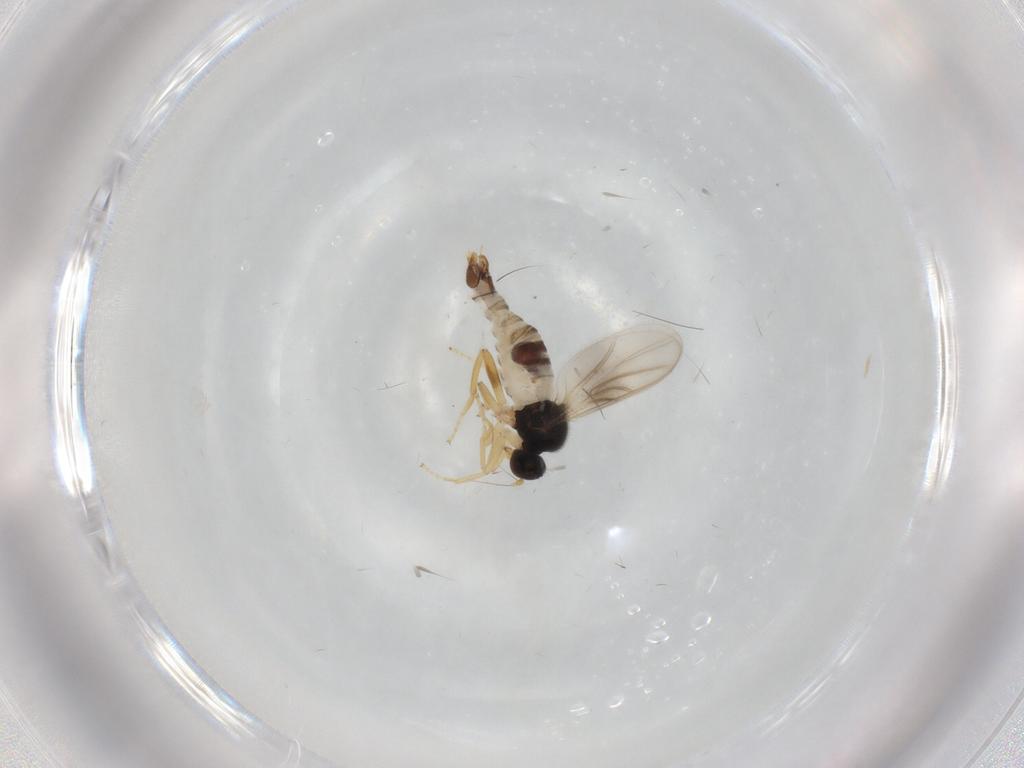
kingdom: Animalia
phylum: Arthropoda
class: Insecta
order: Diptera
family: Hybotidae
